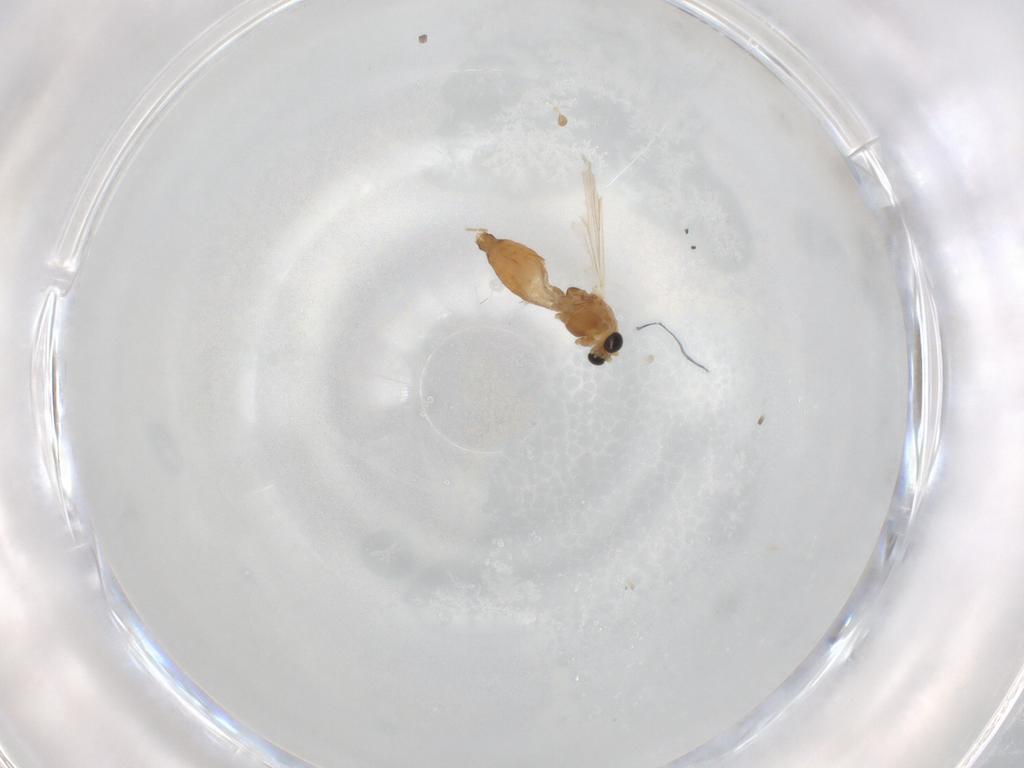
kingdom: Animalia
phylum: Arthropoda
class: Insecta
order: Diptera
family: Chironomidae
